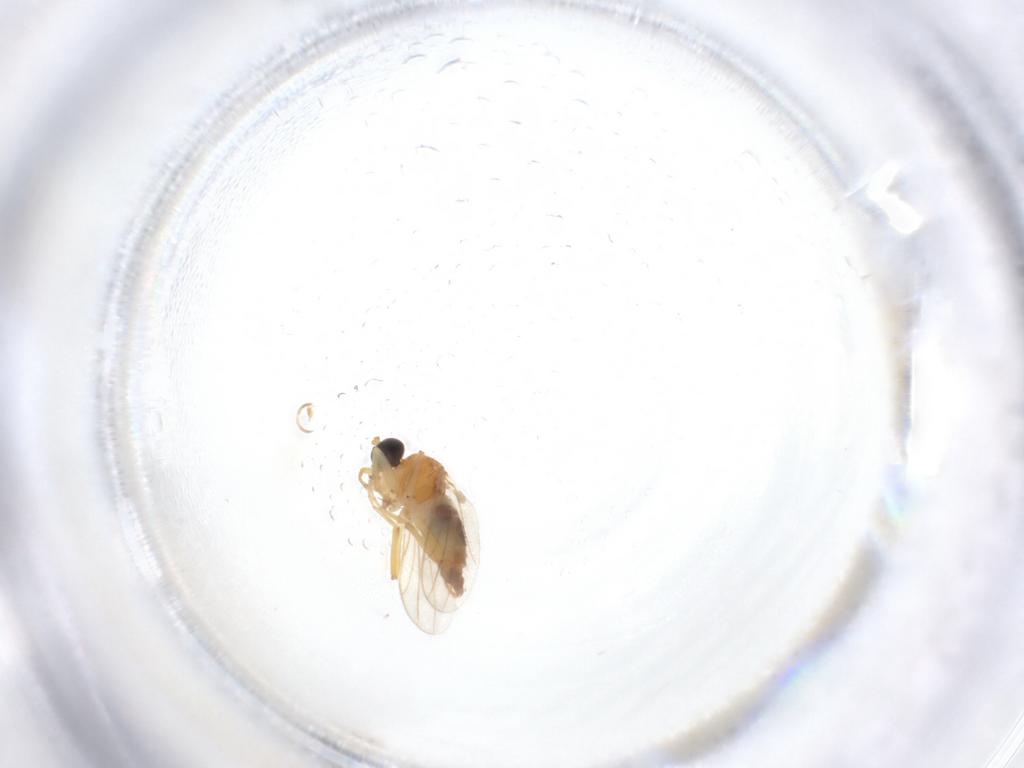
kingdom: Animalia
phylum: Arthropoda
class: Insecta
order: Diptera
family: Hybotidae
